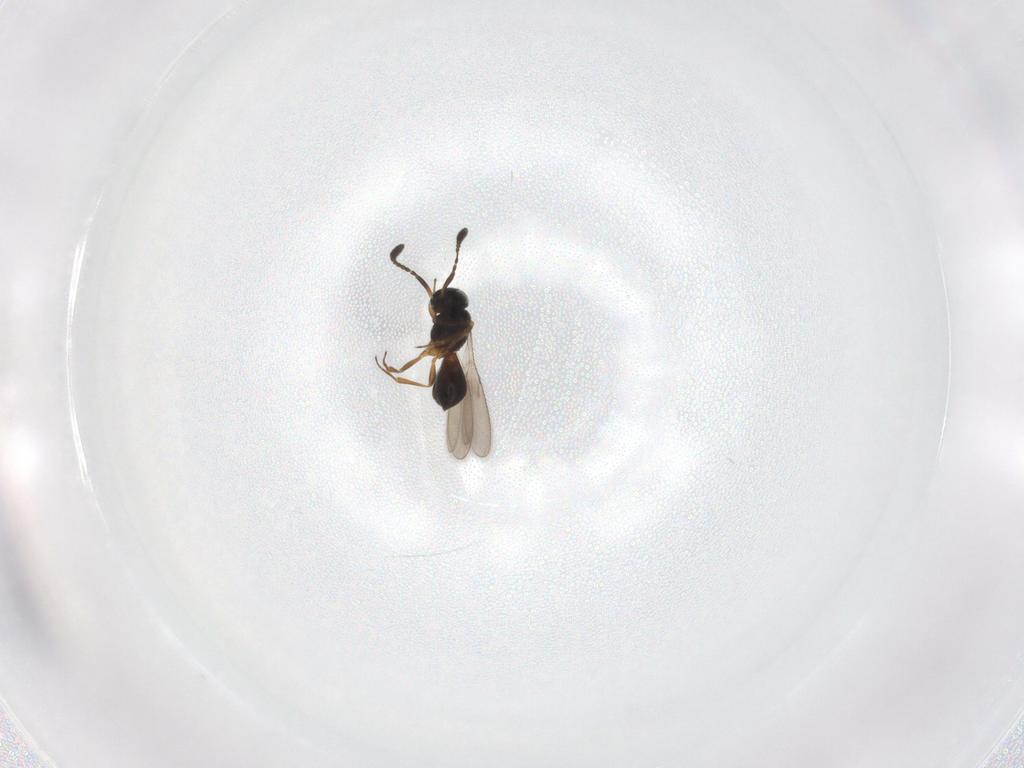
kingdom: Animalia
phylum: Arthropoda
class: Insecta
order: Hymenoptera
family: Scelionidae
